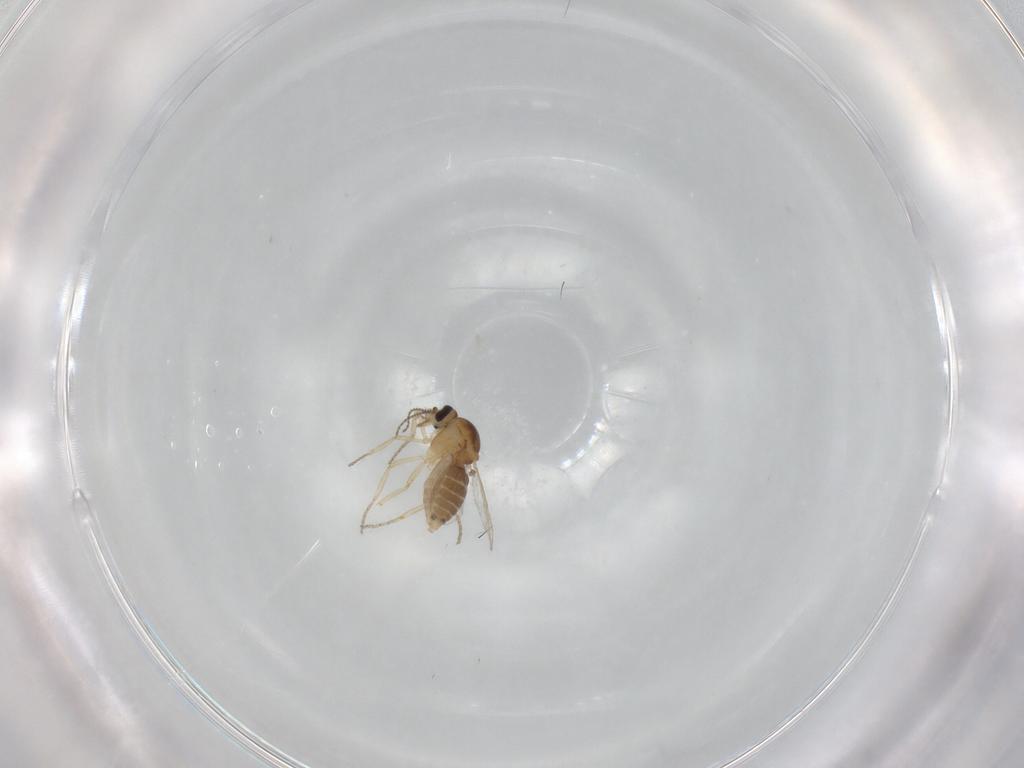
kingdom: Animalia
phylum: Arthropoda
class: Insecta
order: Diptera
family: Ceratopogonidae
